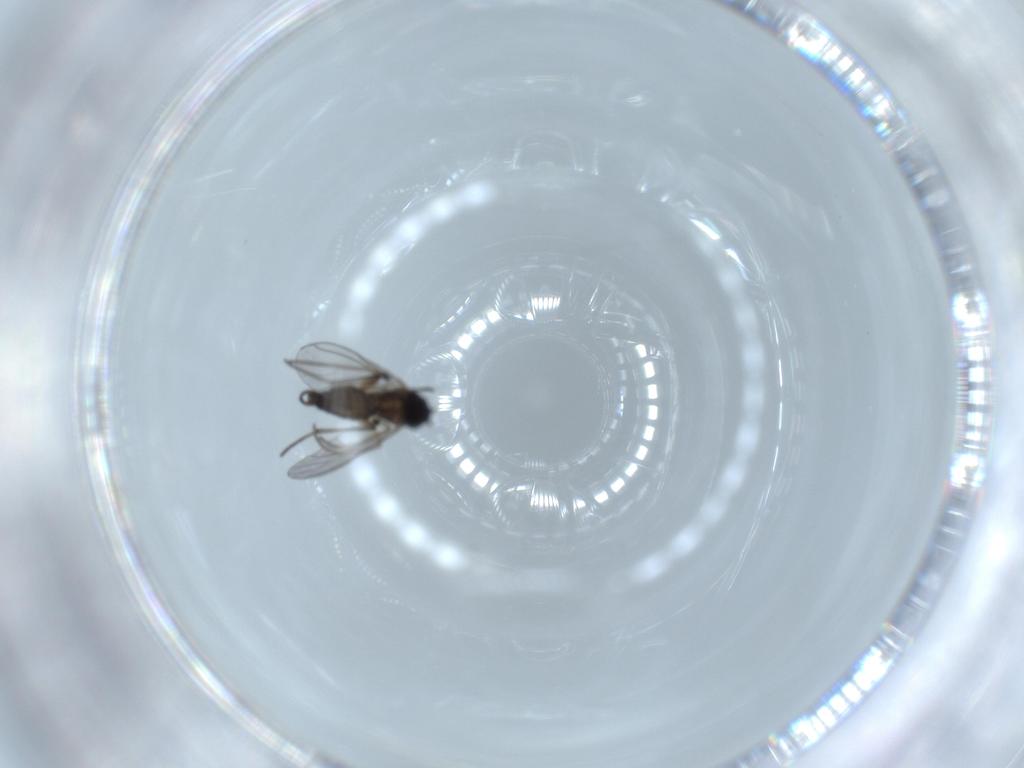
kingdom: Animalia
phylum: Arthropoda
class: Insecta
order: Diptera
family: Sciaridae
